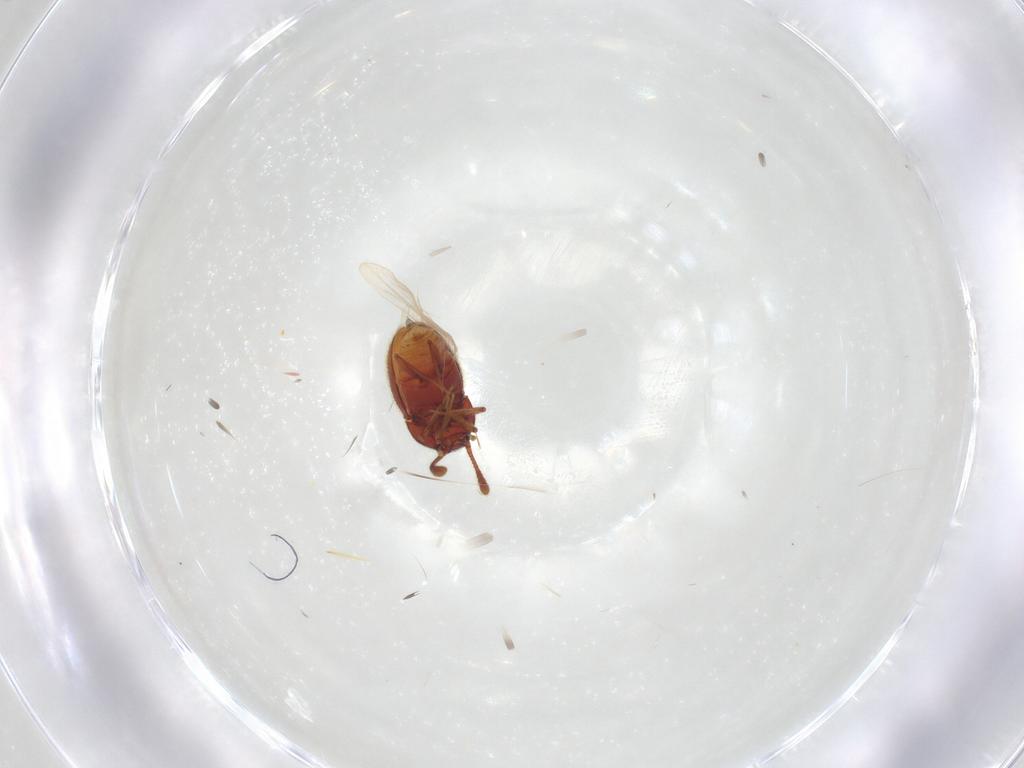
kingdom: Animalia
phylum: Arthropoda
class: Insecta
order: Coleoptera
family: Staphylinidae
